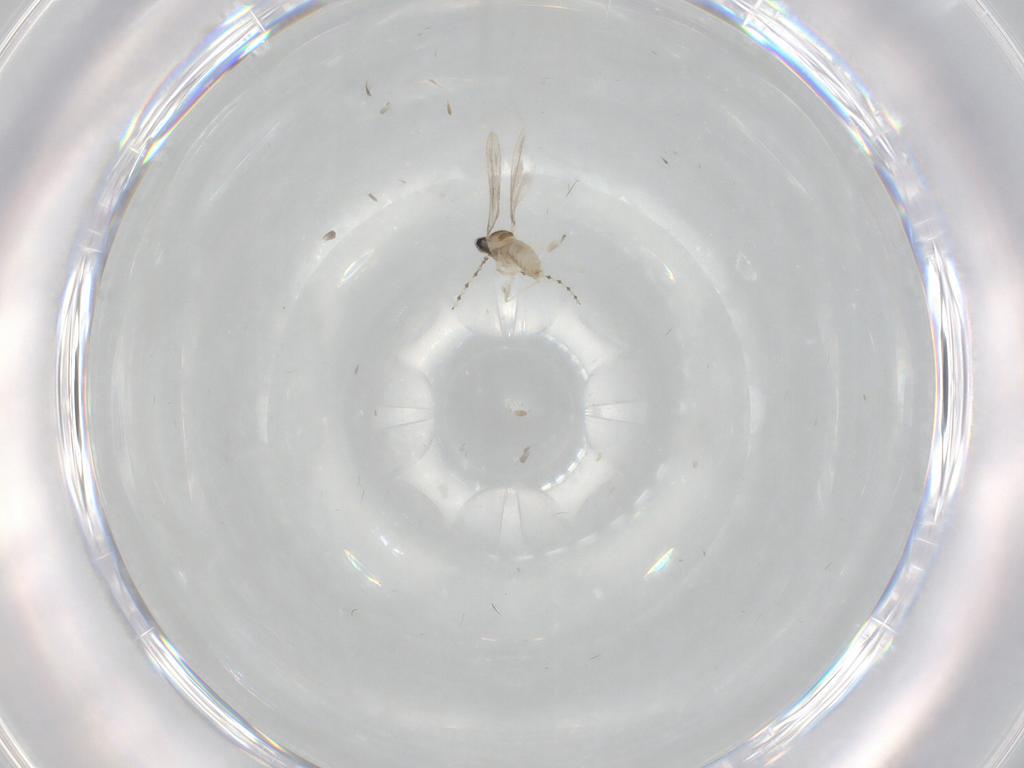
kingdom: Animalia
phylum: Arthropoda
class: Insecta
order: Diptera
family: Cecidomyiidae
